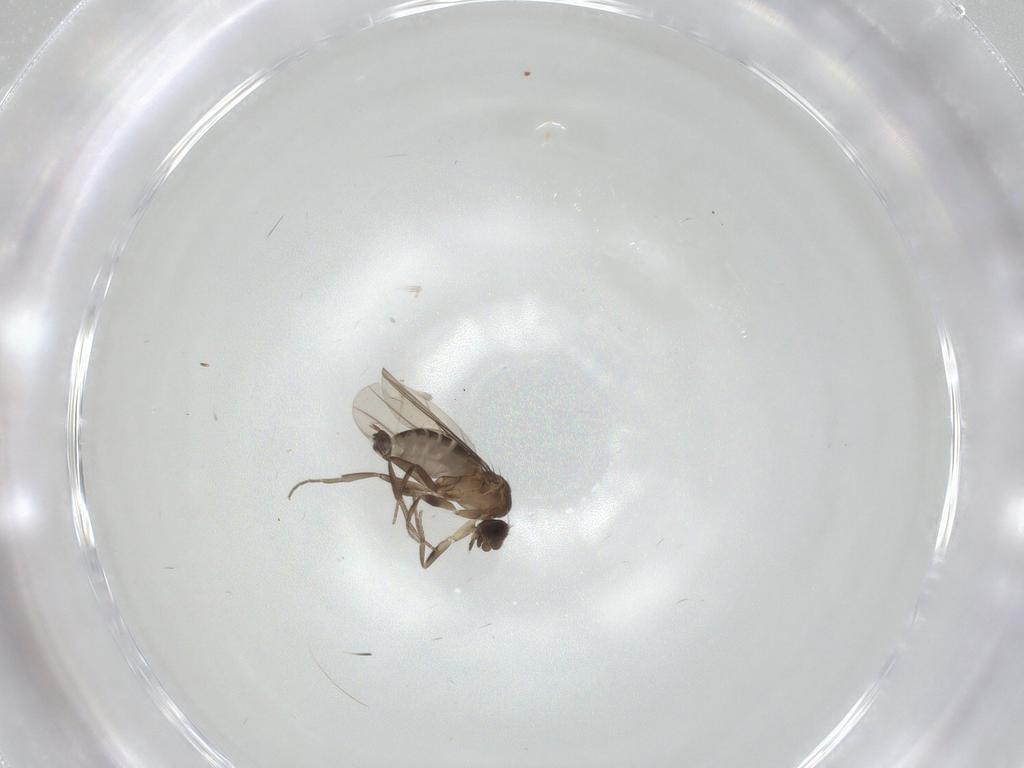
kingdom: Animalia
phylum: Arthropoda
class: Insecta
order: Diptera
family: Phoridae
